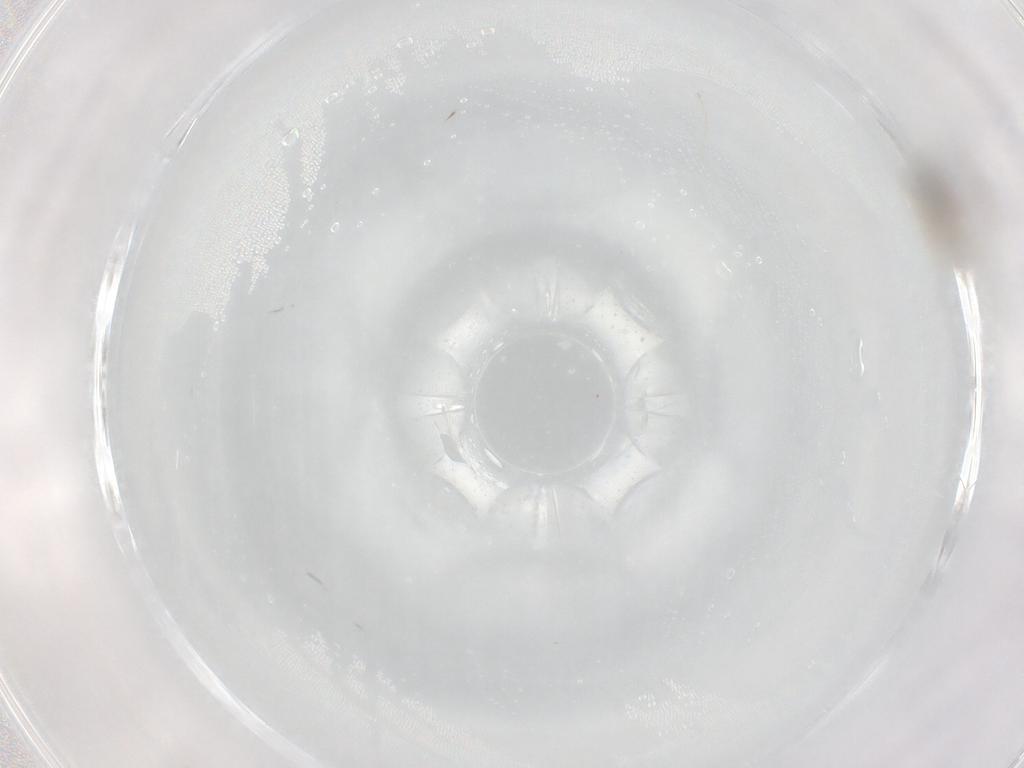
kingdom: Animalia
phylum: Arthropoda
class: Insecta
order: Diptera
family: Cecidomyiidae
